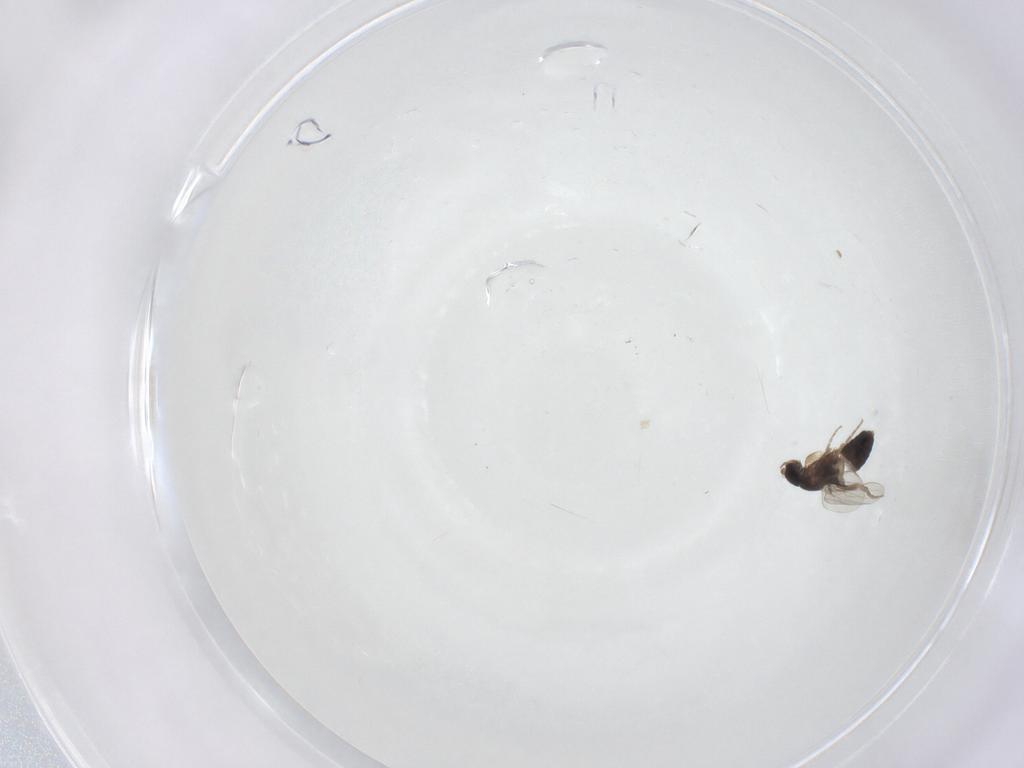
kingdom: Animalia
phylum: Arthropoda
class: Insecta
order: Diptera
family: Phoridae
